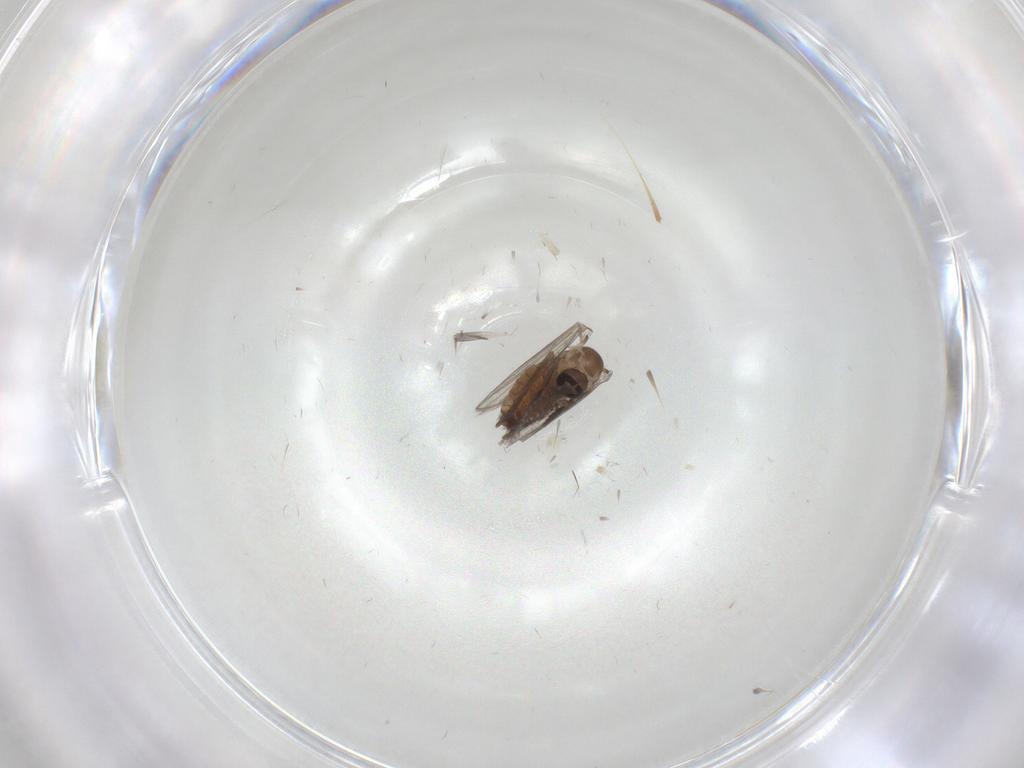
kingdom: Animalia
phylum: Arthropoda
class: Insecta
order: Diptera
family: Psychodidae
